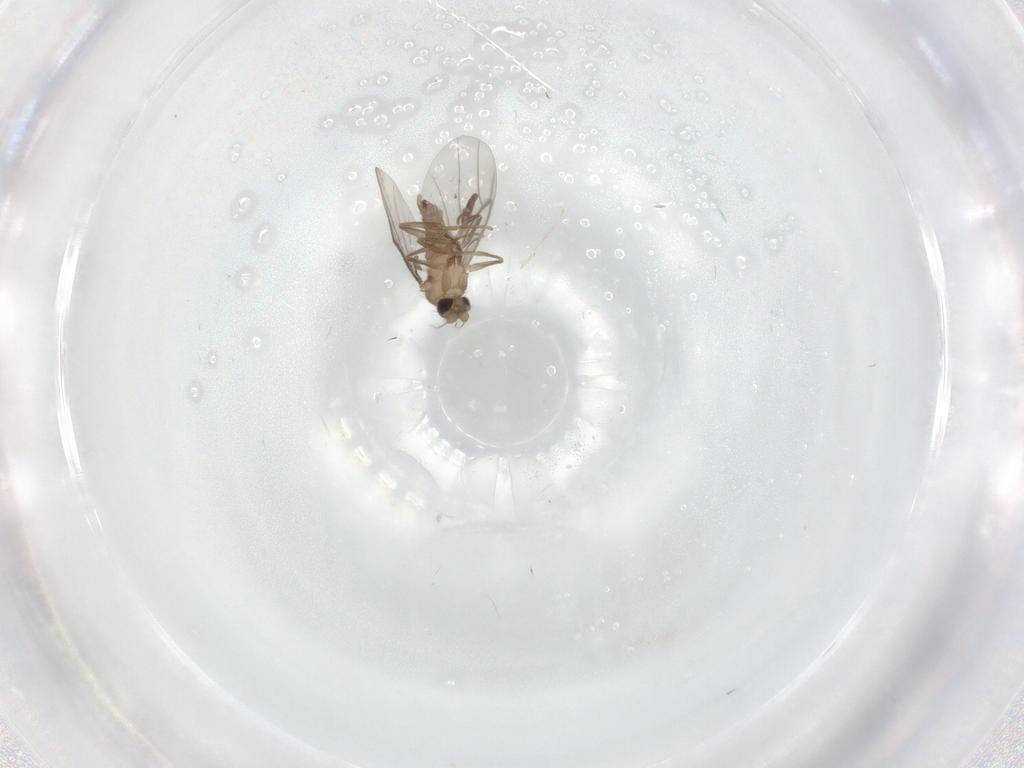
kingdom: Animalia
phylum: Arthropoda
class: Insecta
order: Diptera
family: Cecidomyiidae
